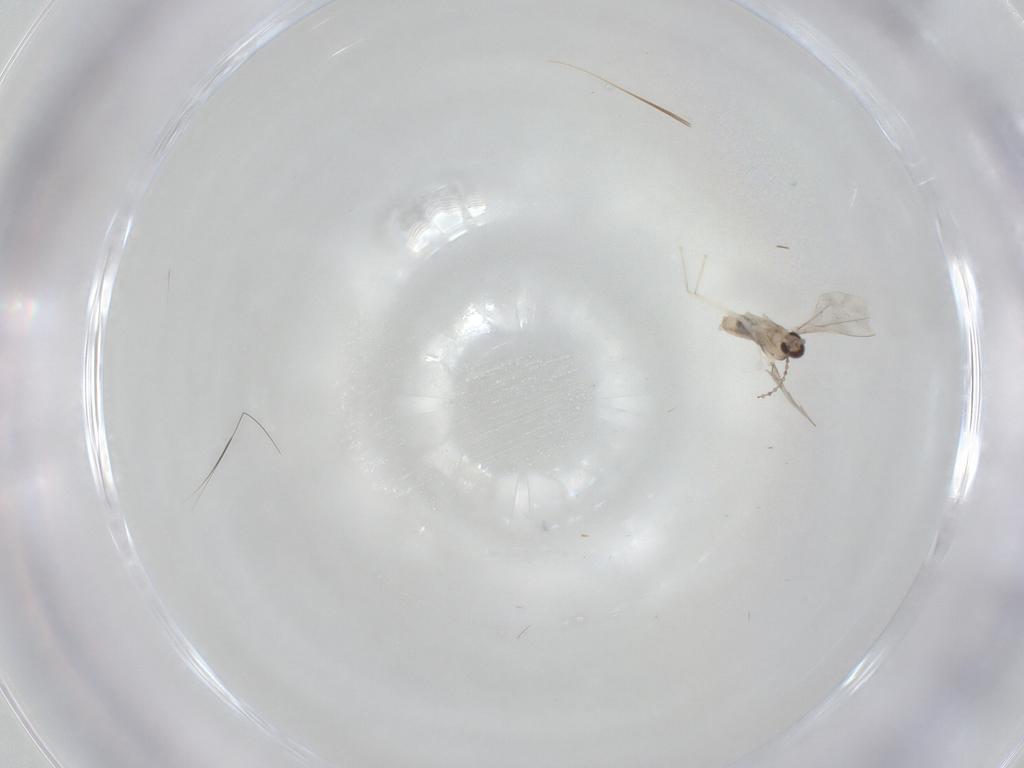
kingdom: Animalia
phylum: Arthropoda
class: Insecta
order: Diptera
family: Cecidomyiidae
